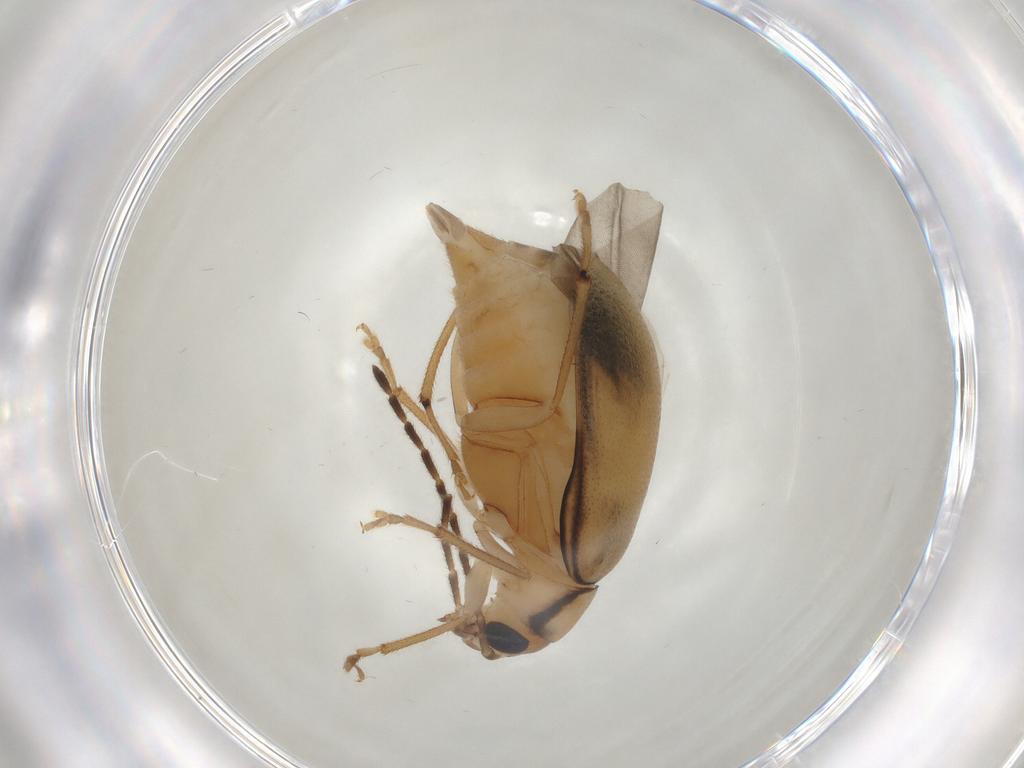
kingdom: Animalia
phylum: Arthropoda
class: Insecta
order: Coleoptera
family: Chrysomelidae
